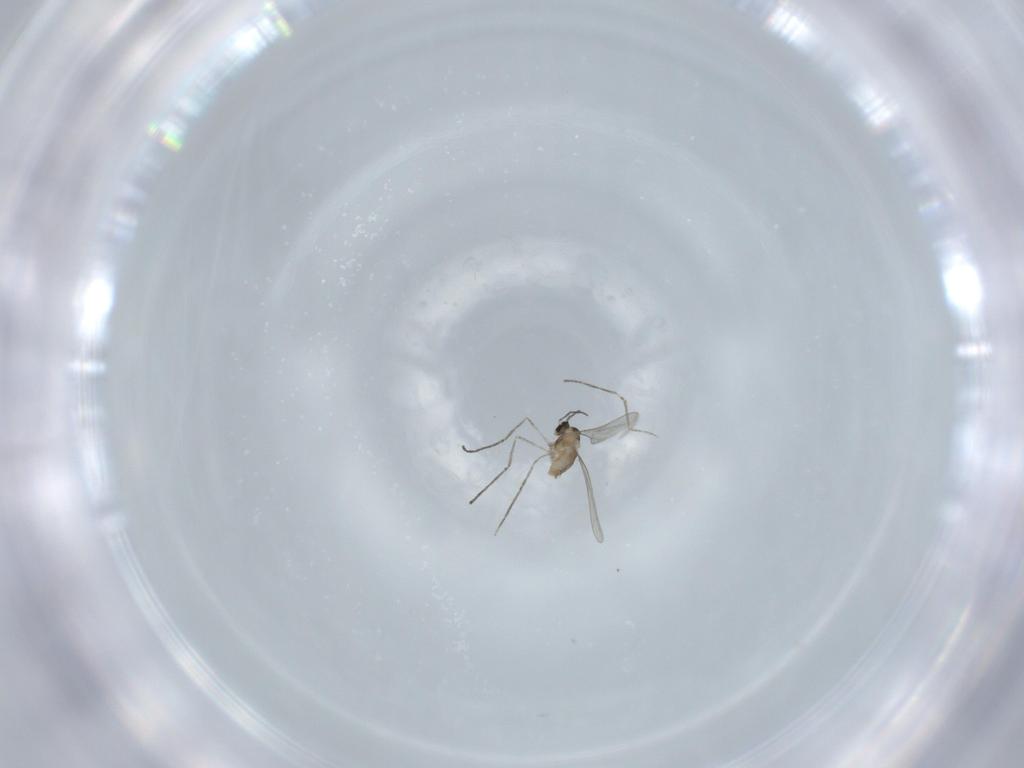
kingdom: Animalia
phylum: Arthropoda
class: Insecta
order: Diptera
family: Cecidomyiidae
